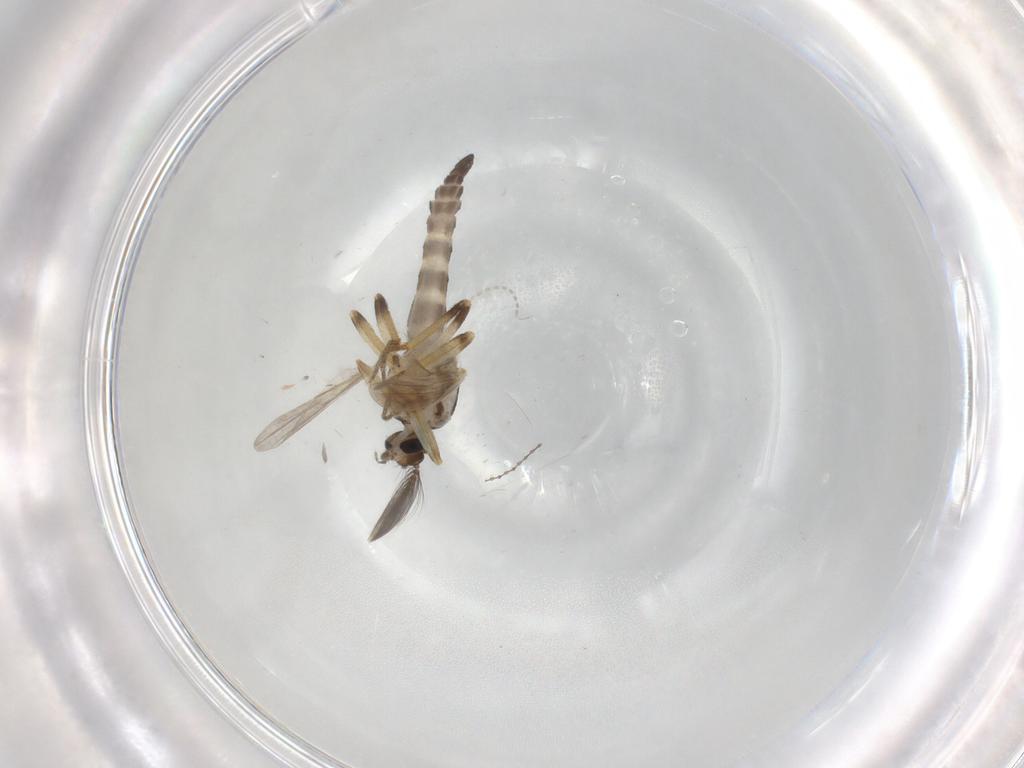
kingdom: Animalia
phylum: Arthropoda
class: Insecta
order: Diptera
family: Ceratopogonidae
